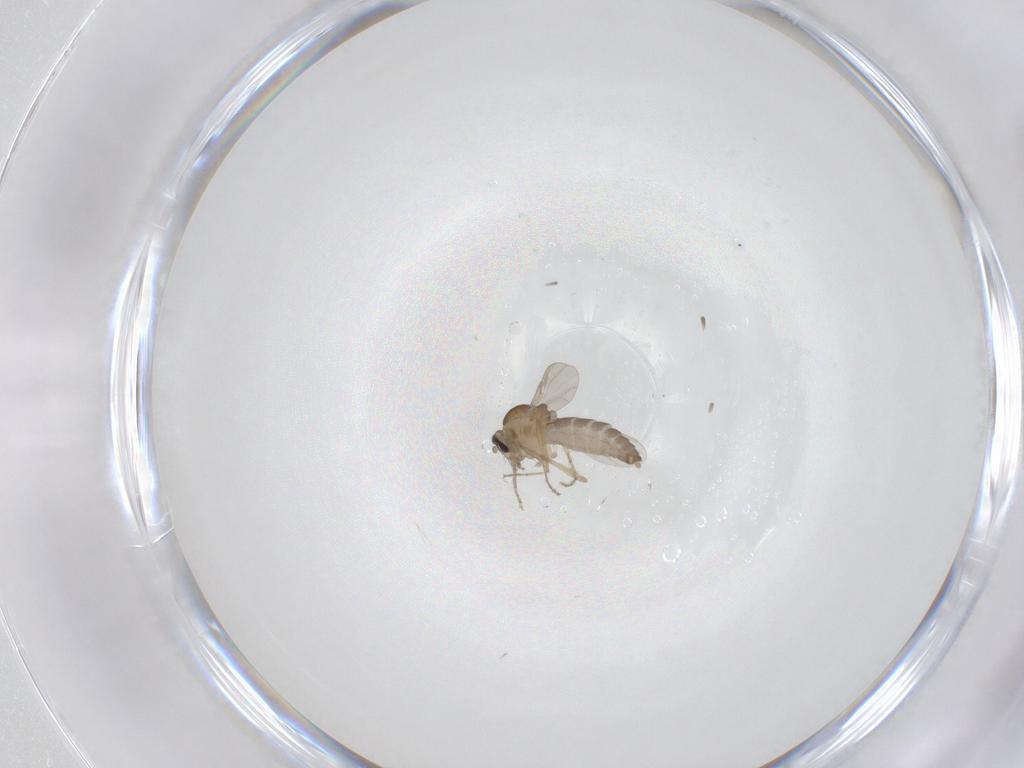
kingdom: Animalia
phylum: Arthropoda
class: Insecta
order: Diptera
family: Ceratopogonidae
